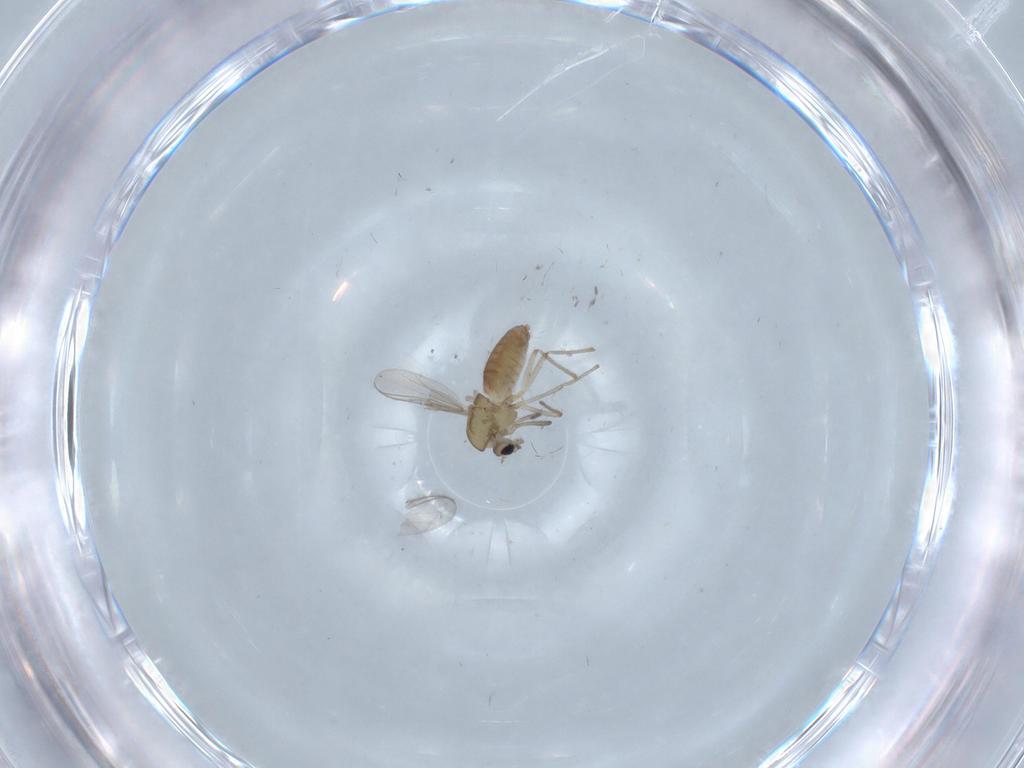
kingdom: Animalia
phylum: Arthropoda
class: Insecta
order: Diptera
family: Chironomidae
